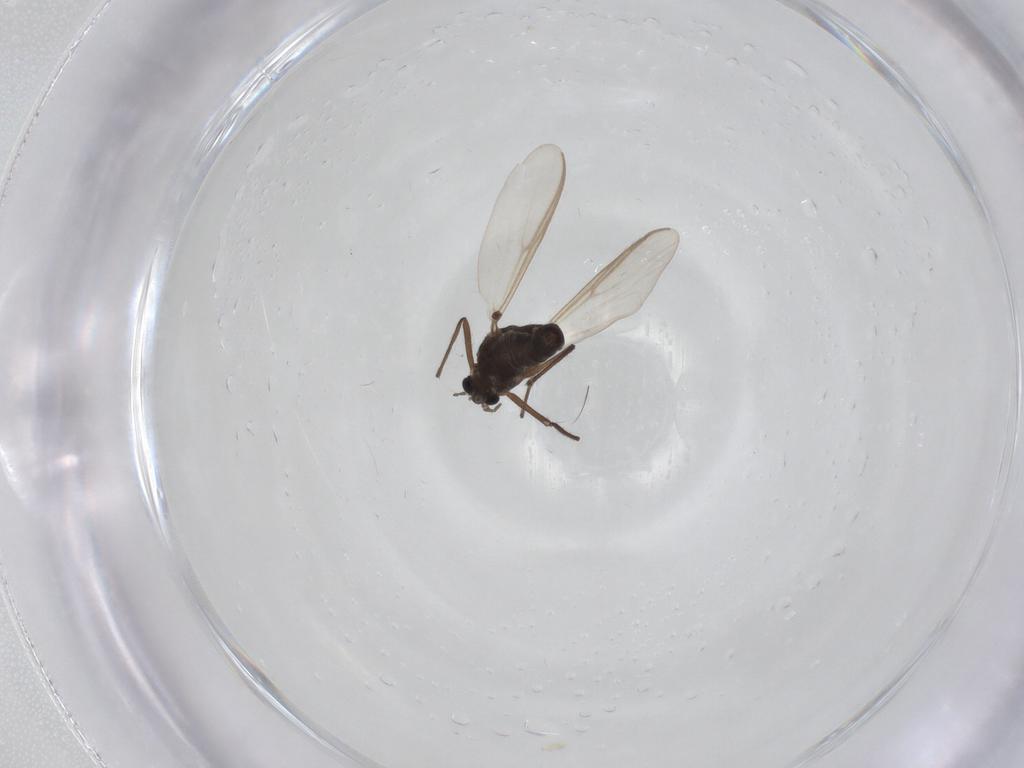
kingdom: Animalia
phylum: Arthropoda
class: Insecta
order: Diptera
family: Chironomidae
